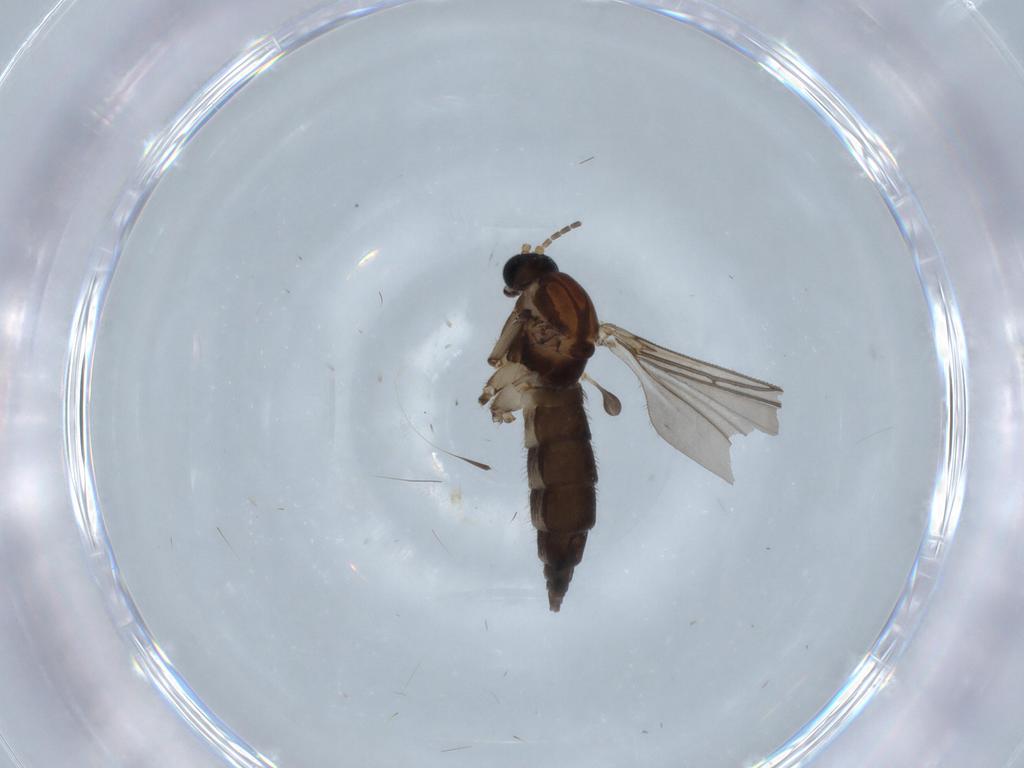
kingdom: Animalia
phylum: Arthropoda
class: Insecta
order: Diptera
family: Sciaridae
